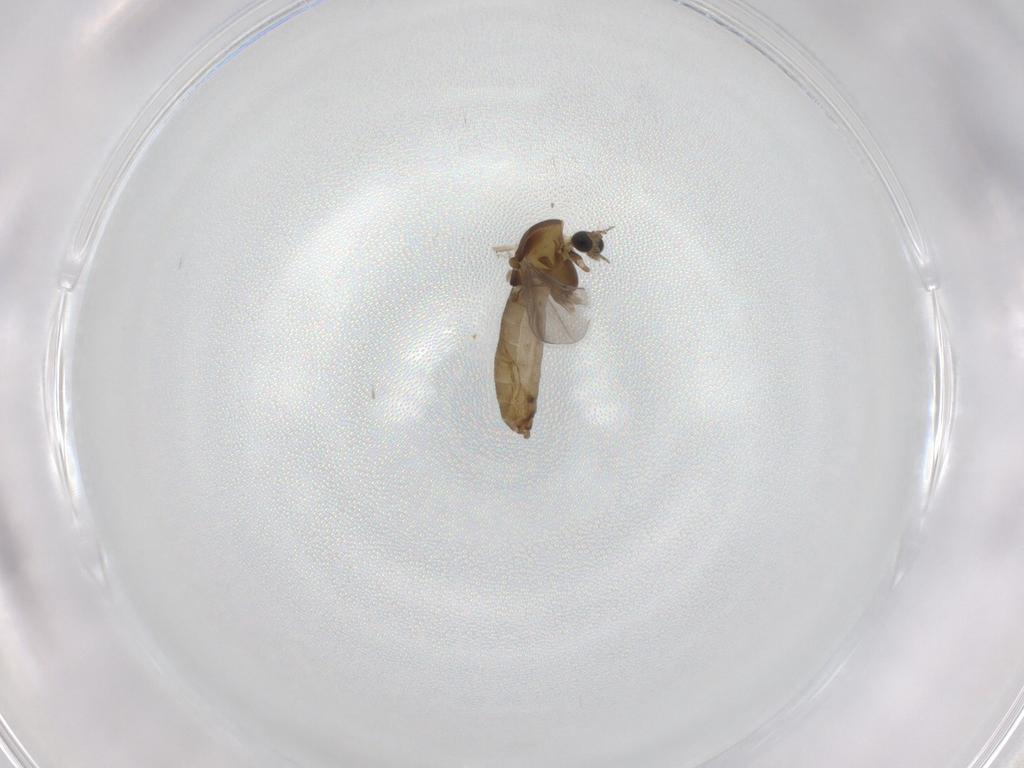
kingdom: Animalia
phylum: Arthropoda
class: Insecta
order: Diptera
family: Chironomidae
